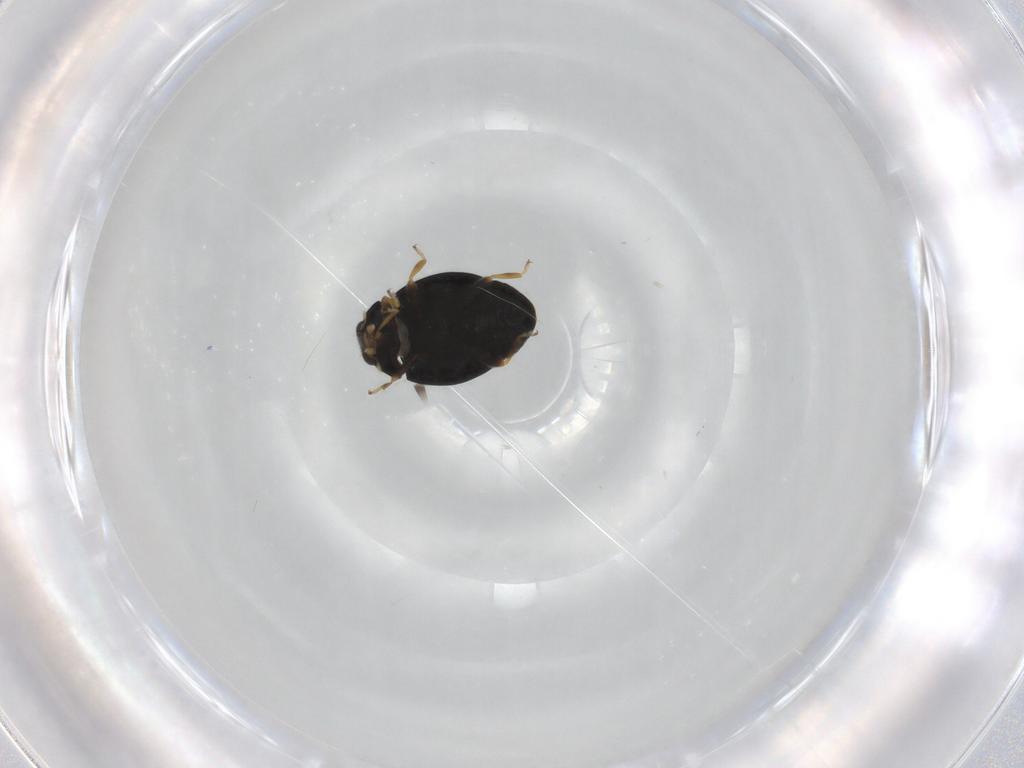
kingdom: Animalia
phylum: Arthropoda
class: Insecta
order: Coleoptera
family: Coccinellidae
